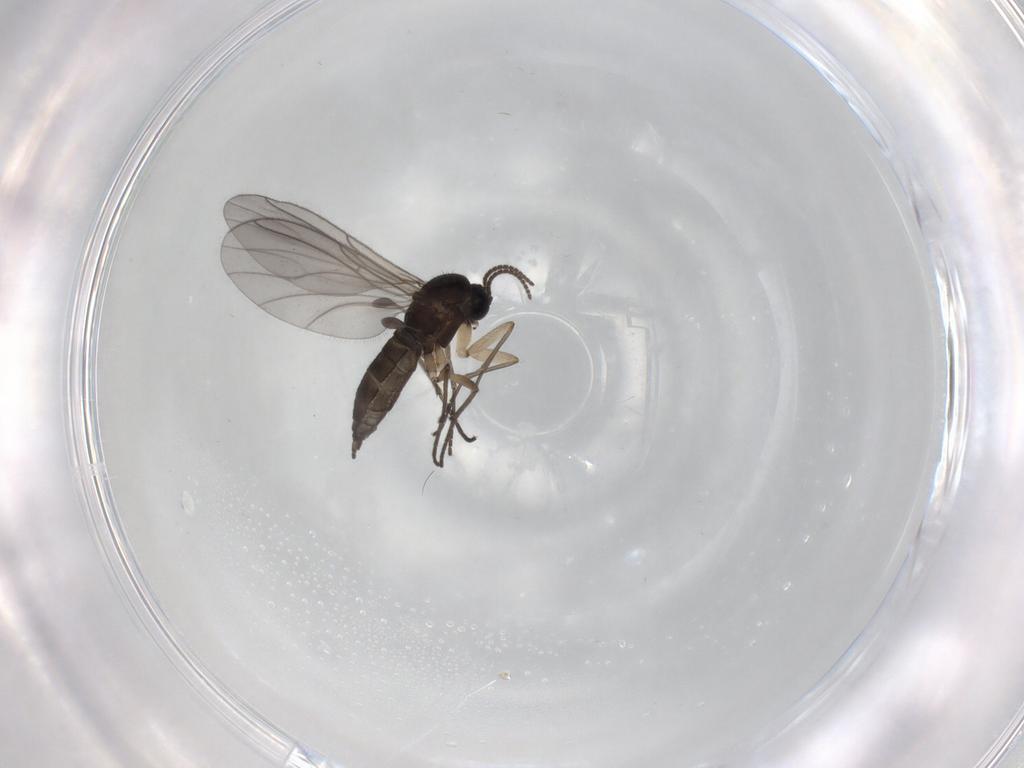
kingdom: Animalia
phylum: Arthropoda
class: Insecta
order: Diptera
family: Sciaridae
